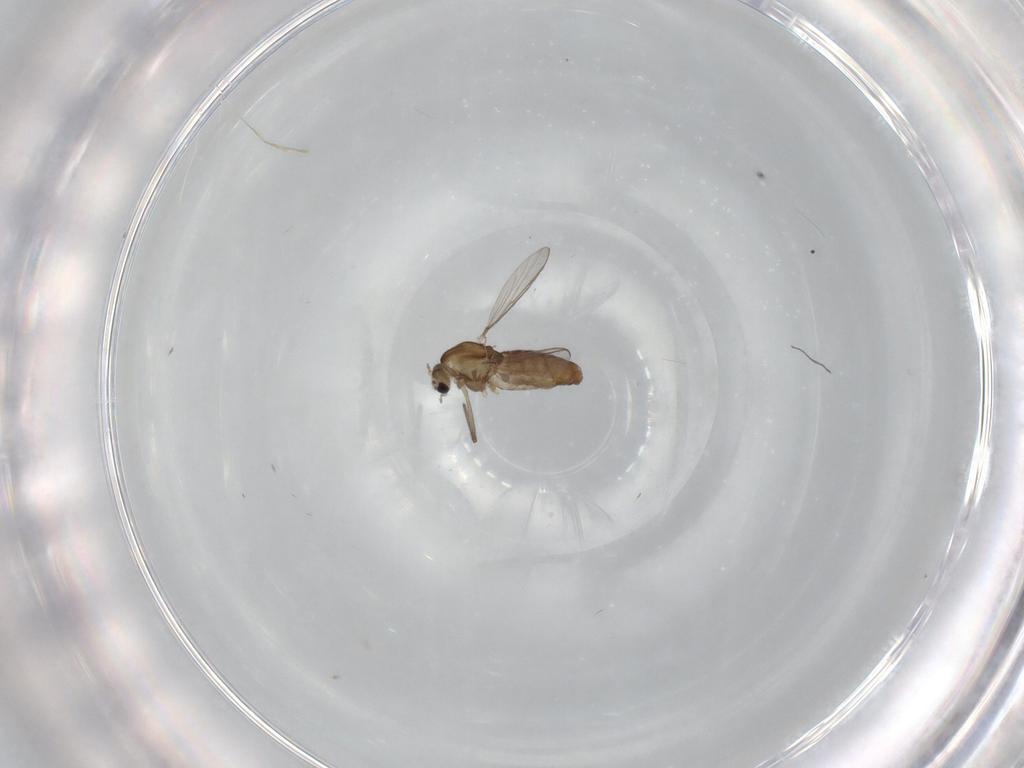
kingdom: Animalia
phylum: Arthropoda
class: Insecta
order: Diptera
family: Chironomidae
